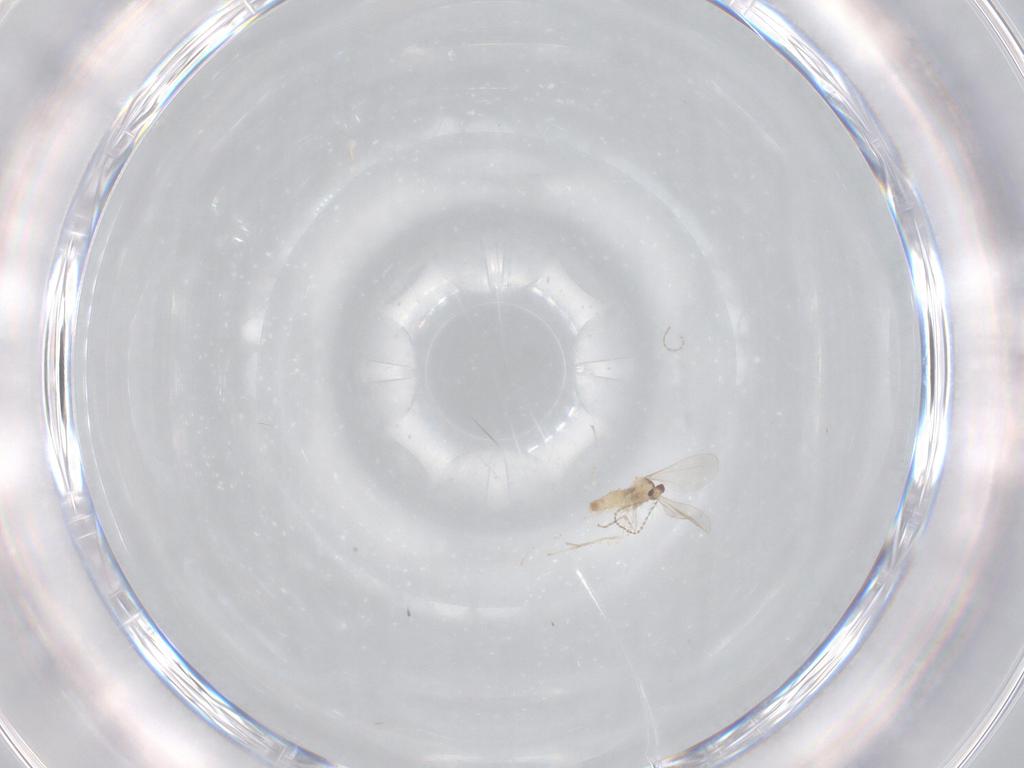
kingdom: Animalia
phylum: Arthropoda
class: Insecta
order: Diptera
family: Cecidomyiidae
